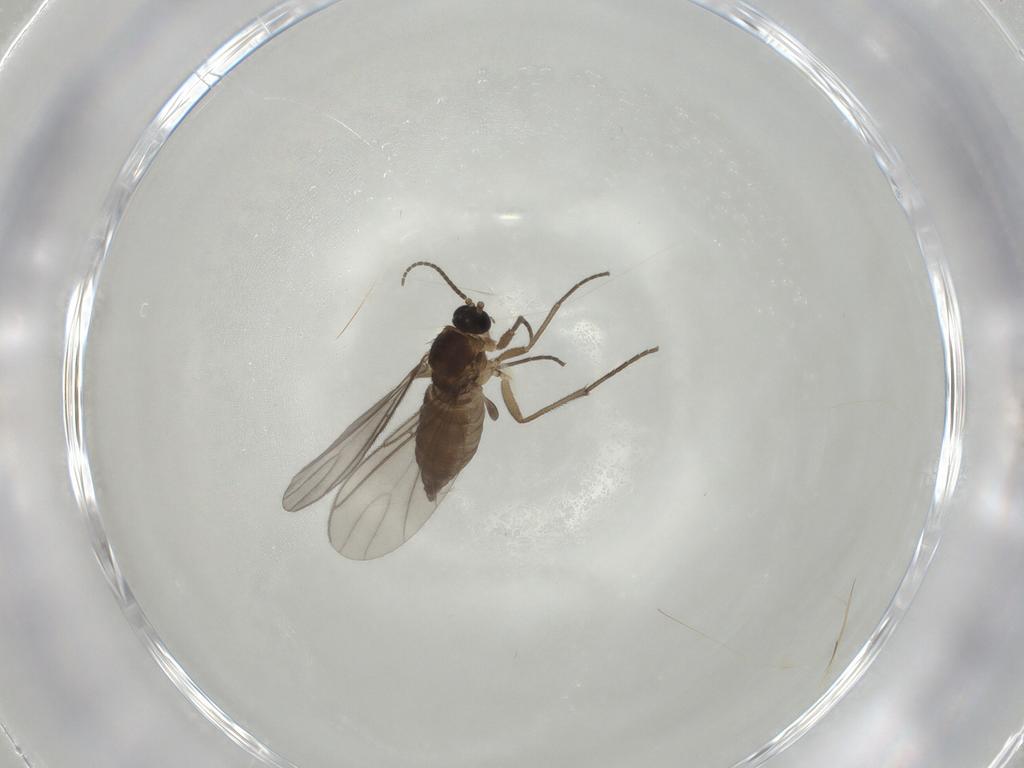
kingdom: Animalia
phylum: Arthropoda
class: Insecta
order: Diptera
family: Sciaridae
